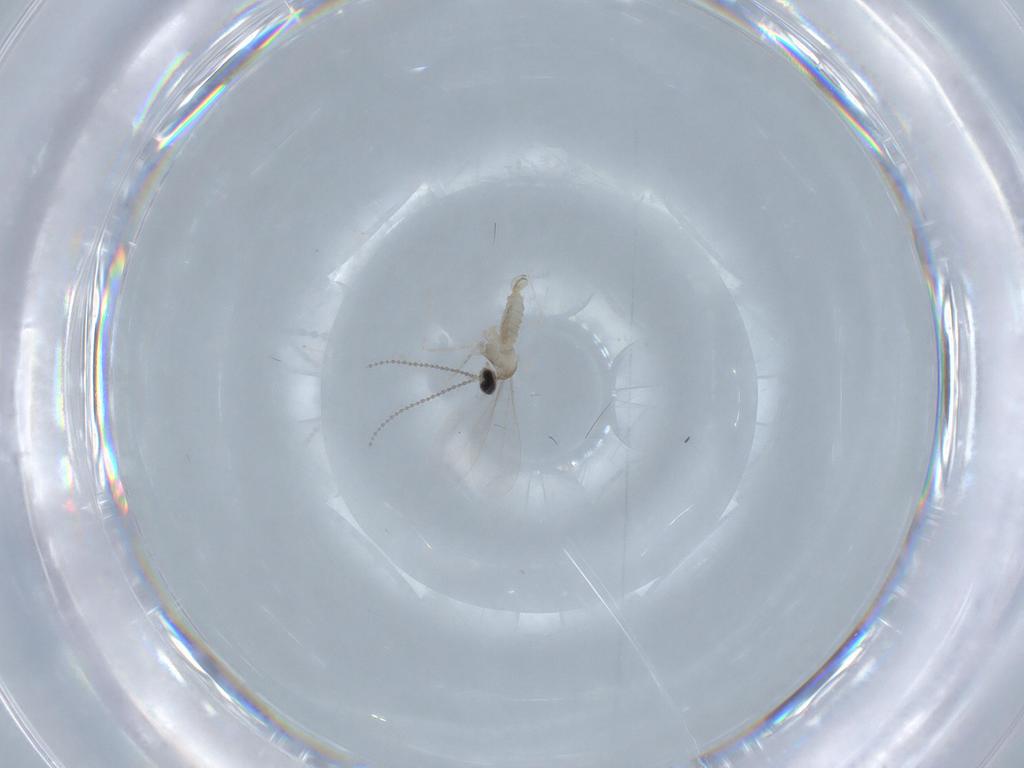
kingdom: Animalia
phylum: Arthropoda
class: Insecta
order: Diptera
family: Cecidomyiidae
